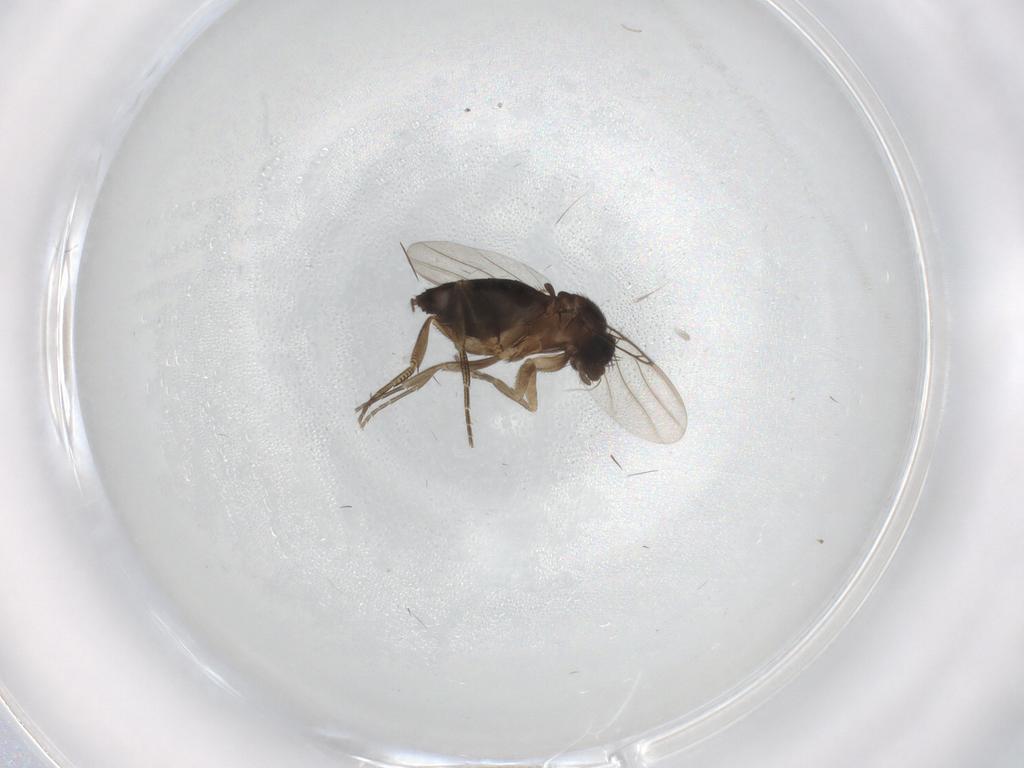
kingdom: Animalia
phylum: Arthropoda
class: Insecta
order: Diptera
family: Phoridae
